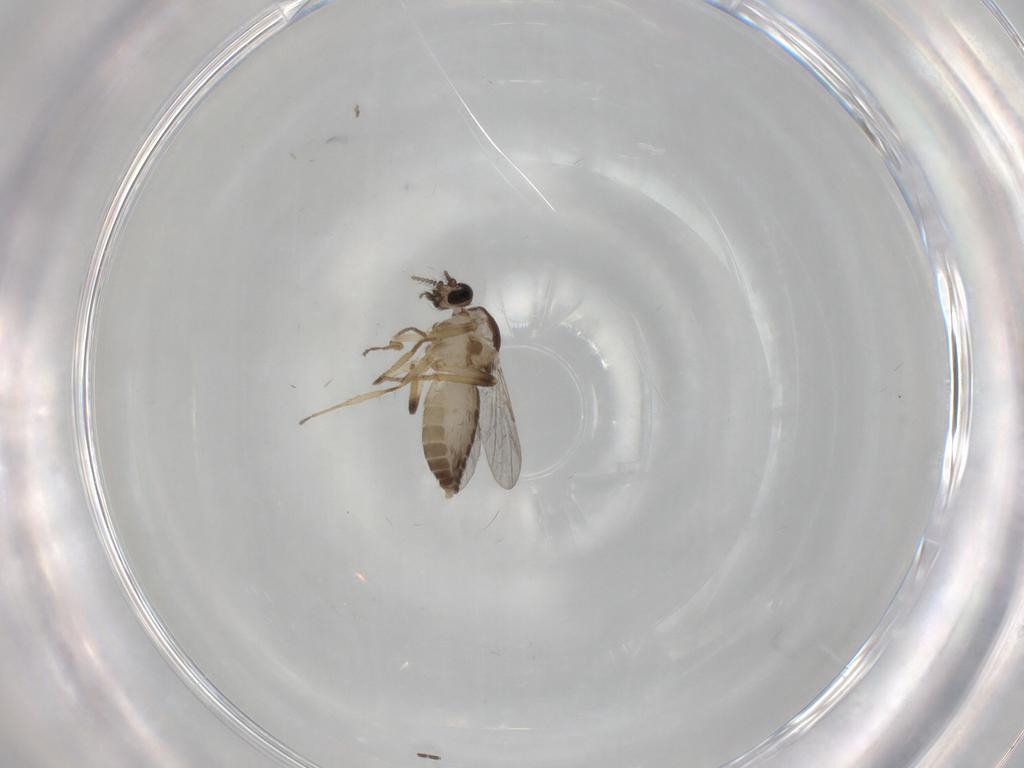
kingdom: Animalia
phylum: Arthropoda
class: Insecta
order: Diptera
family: Ceratopogonidae
